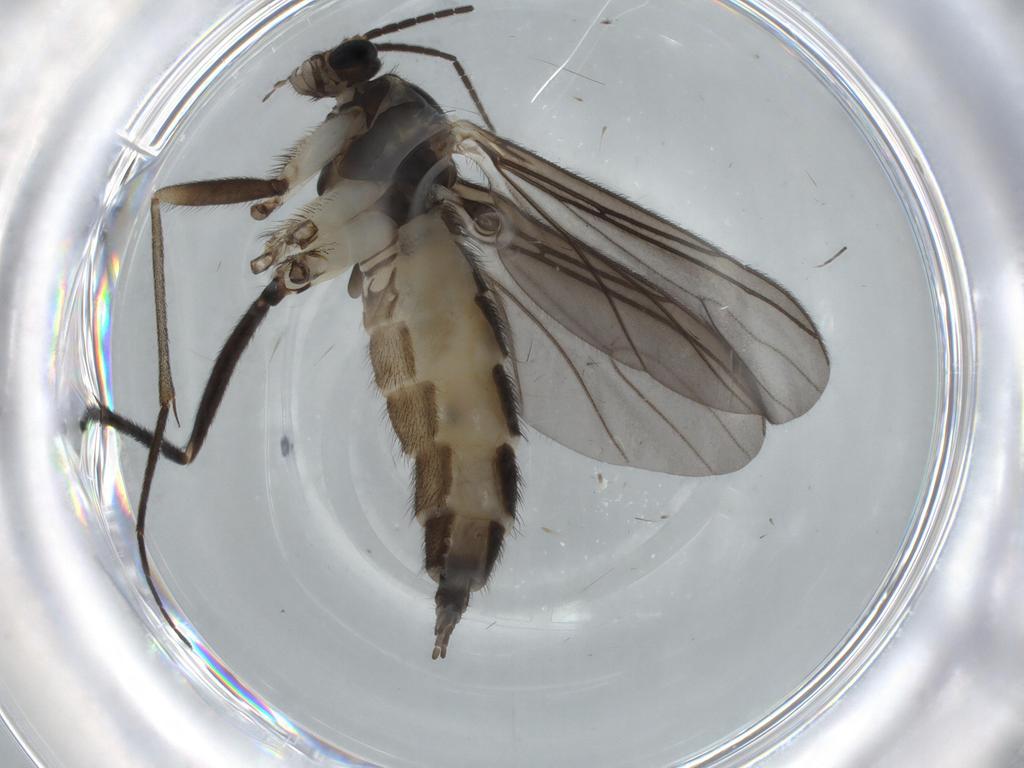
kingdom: Animalia
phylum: Arthropoda
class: Insecta
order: Diptera
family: Sciaridae
